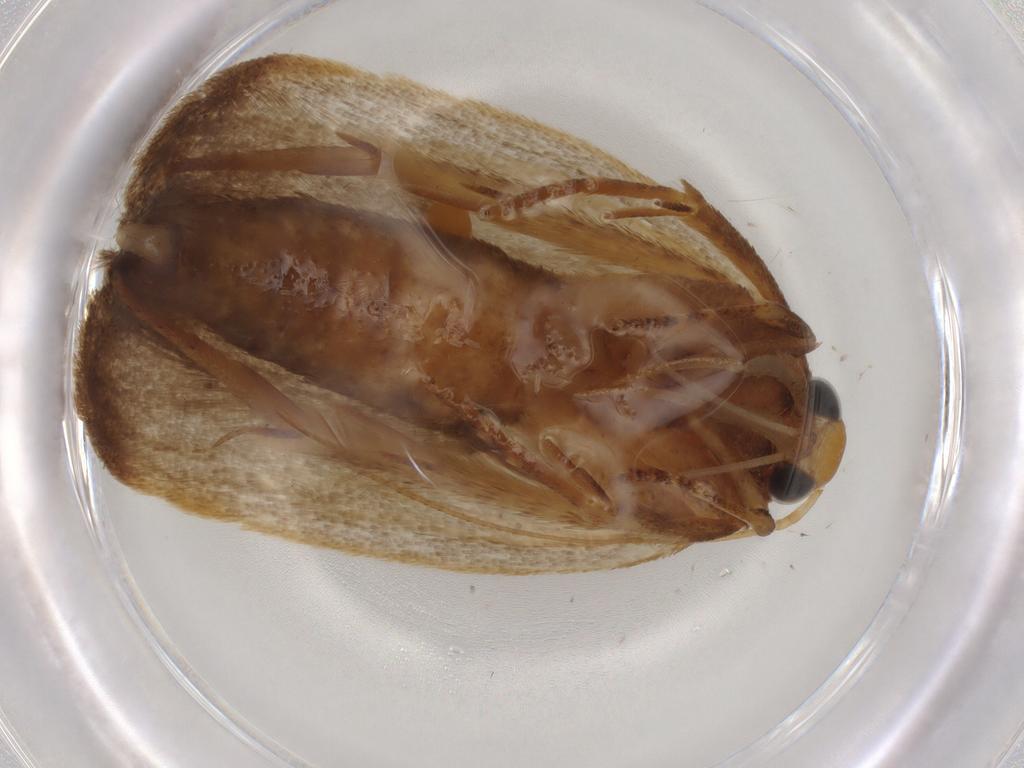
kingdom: Animalia
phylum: Arthropoda
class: Insecta
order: Lepidoptera
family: Autostichidae
